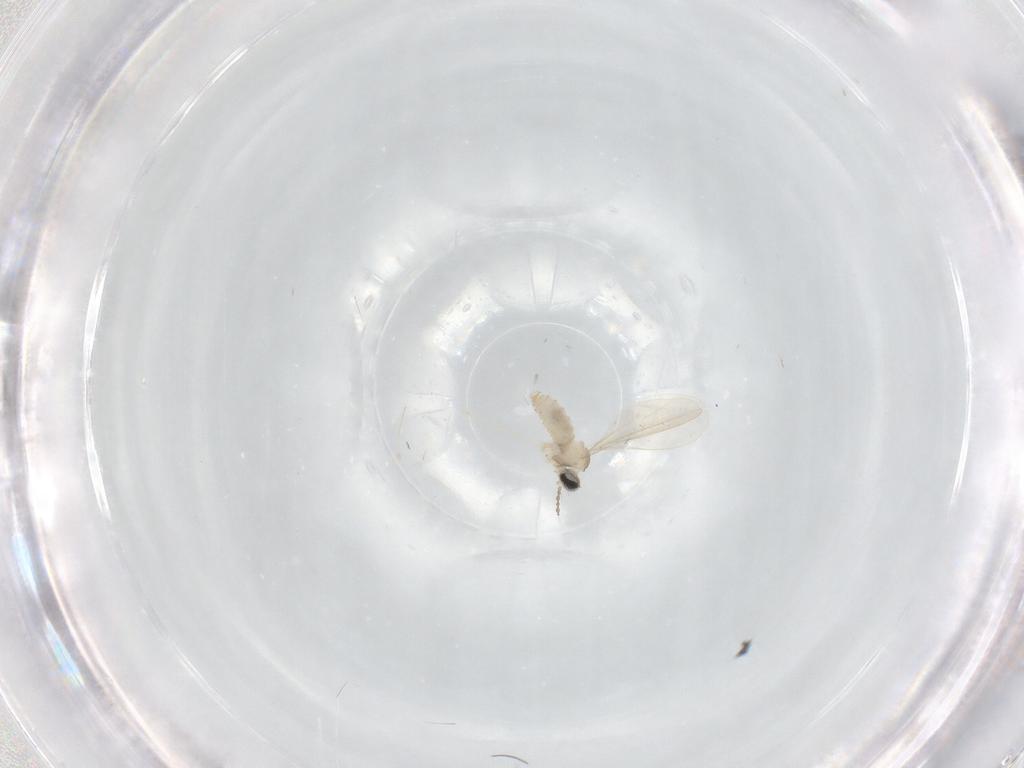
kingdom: Animalia
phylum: Arthropoda
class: Insecta
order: Diptera
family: Cecidomyiidae
